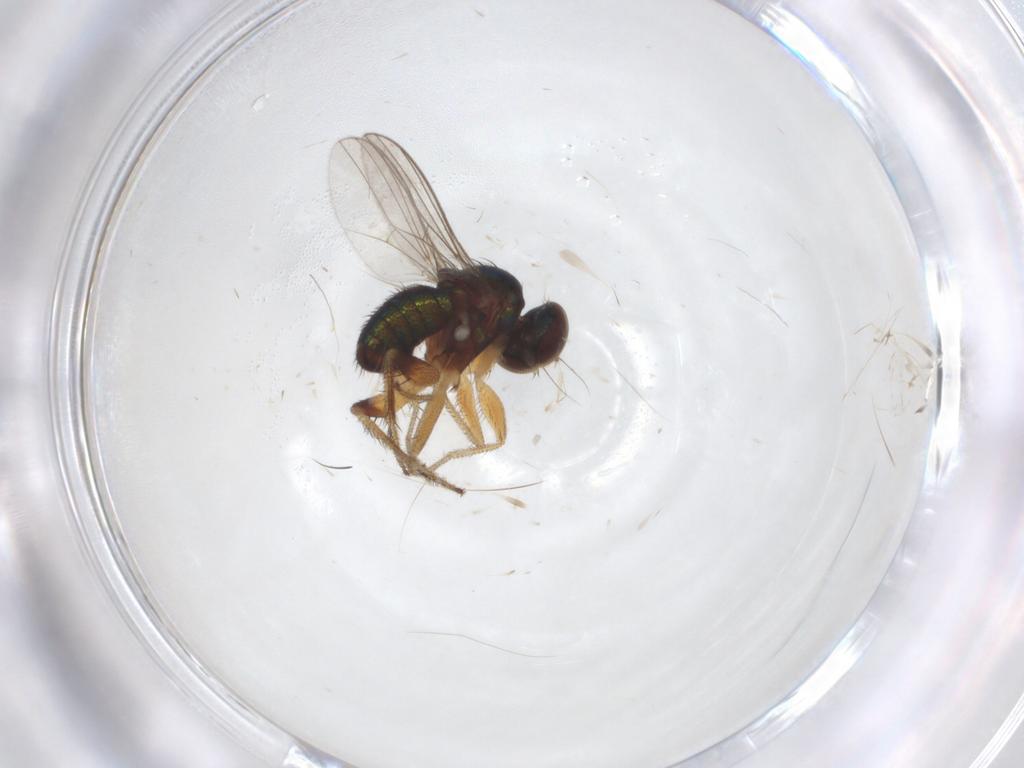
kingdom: Animalia
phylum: Arthropoda
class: Insecta
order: Diptera
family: Dolichopodidae
